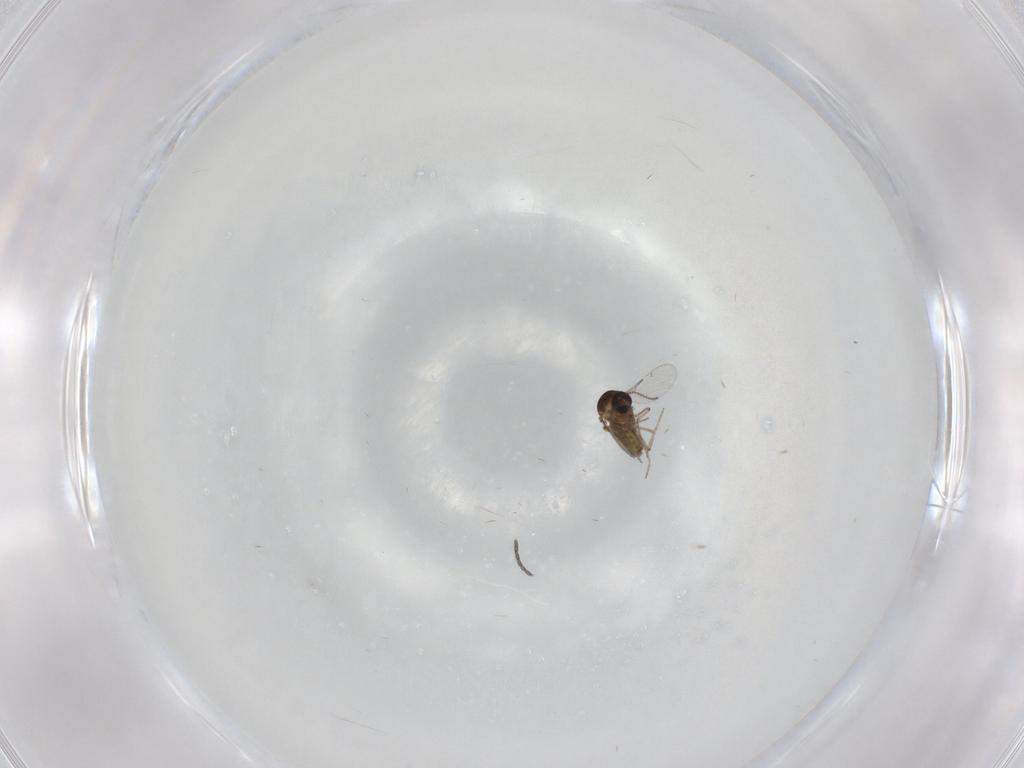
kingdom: Animalia
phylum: Arthropoda
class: Insecta
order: Diptera
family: Ceratopogonidae
